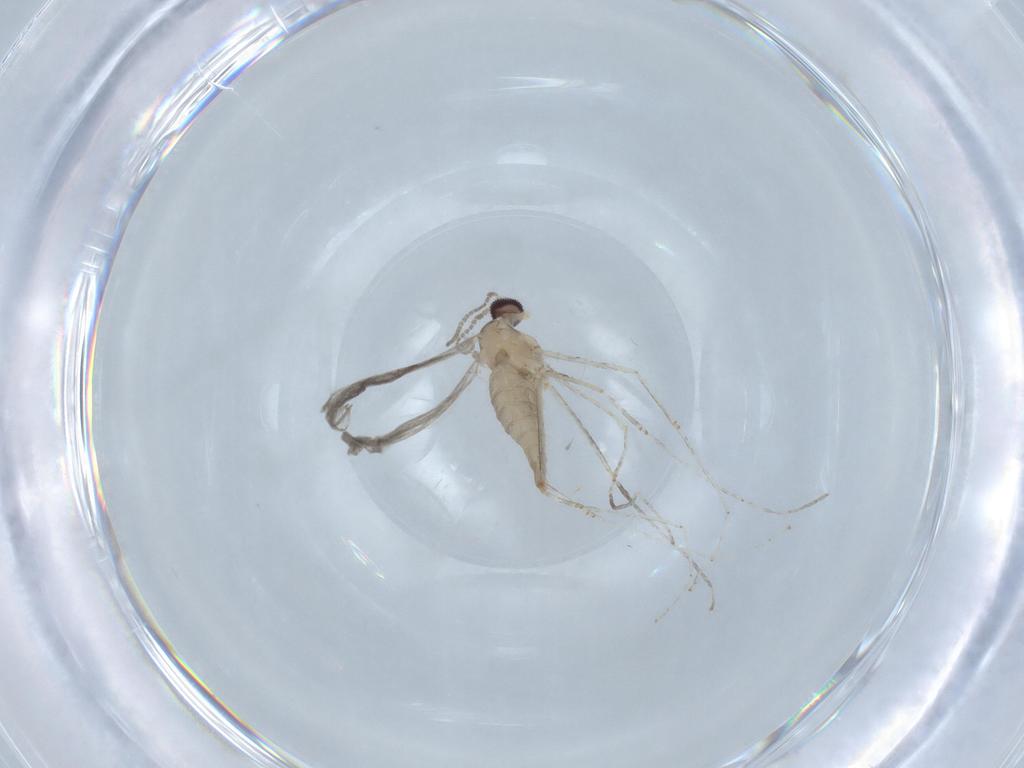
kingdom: Animalia
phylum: Arthropoda
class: Insecta
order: Diptera
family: Cecidomyiidae
